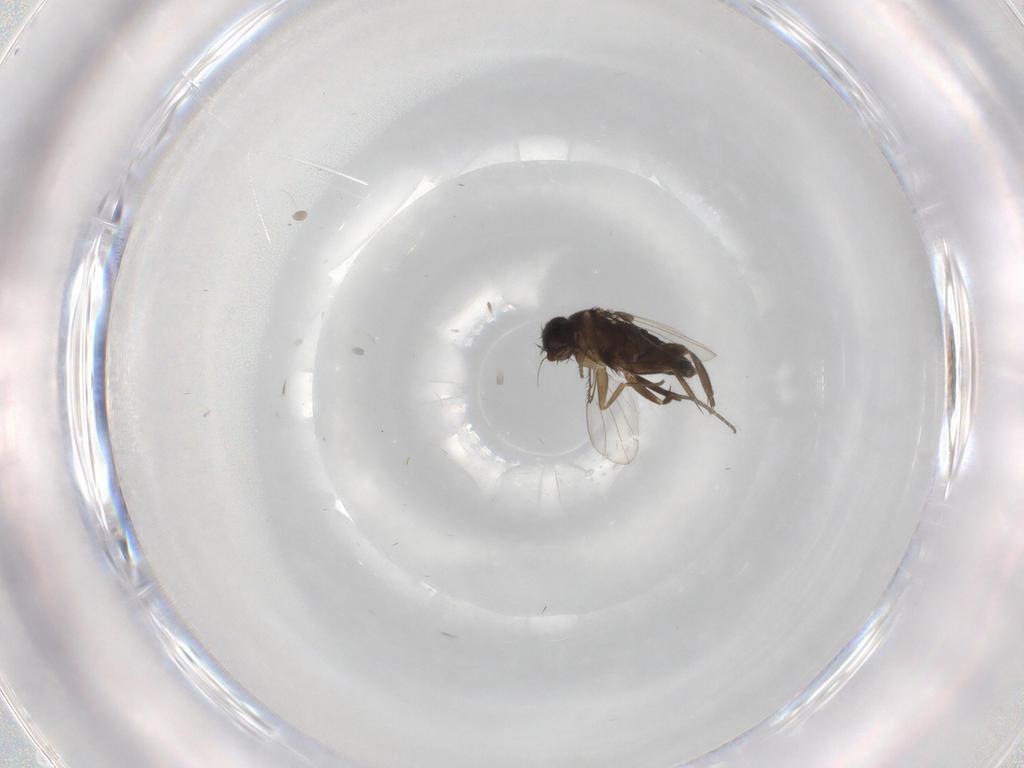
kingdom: Animalia
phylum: Arthropoda
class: Insecta
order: Diptera
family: Phoridae
